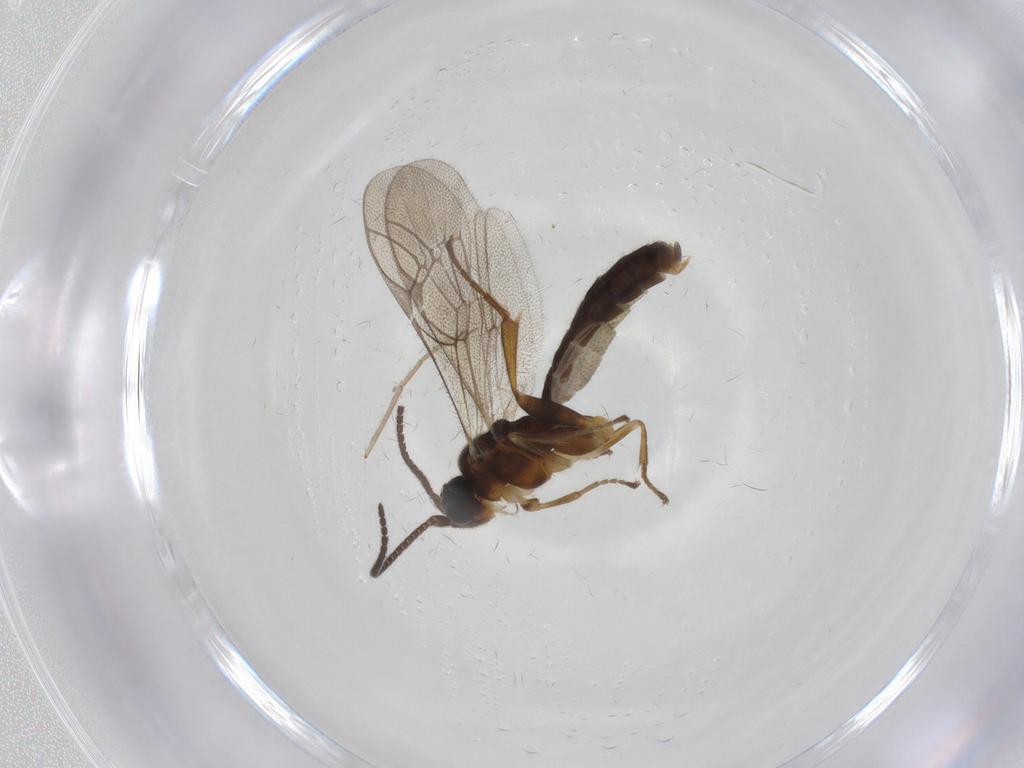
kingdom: Animalia
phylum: Arthropoda
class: Insecta
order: Hymenoptera
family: Ichneumonidae
